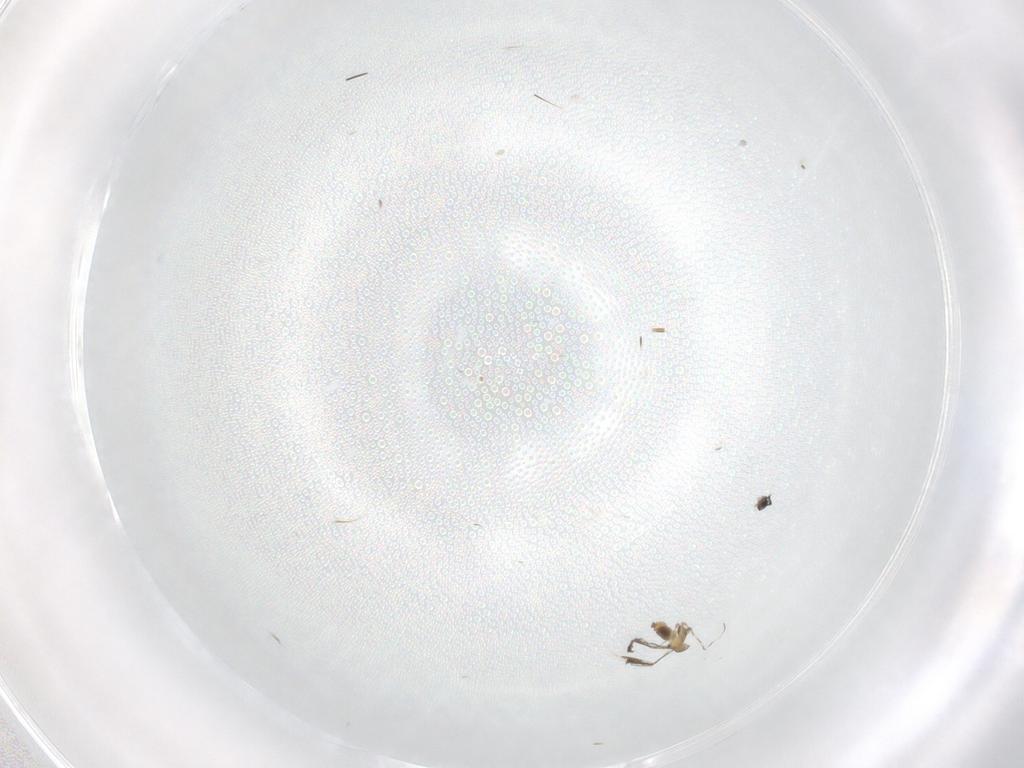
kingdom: Animalia
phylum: Arthropoda
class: Insecta
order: Diptera
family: Cecidomyiidae
